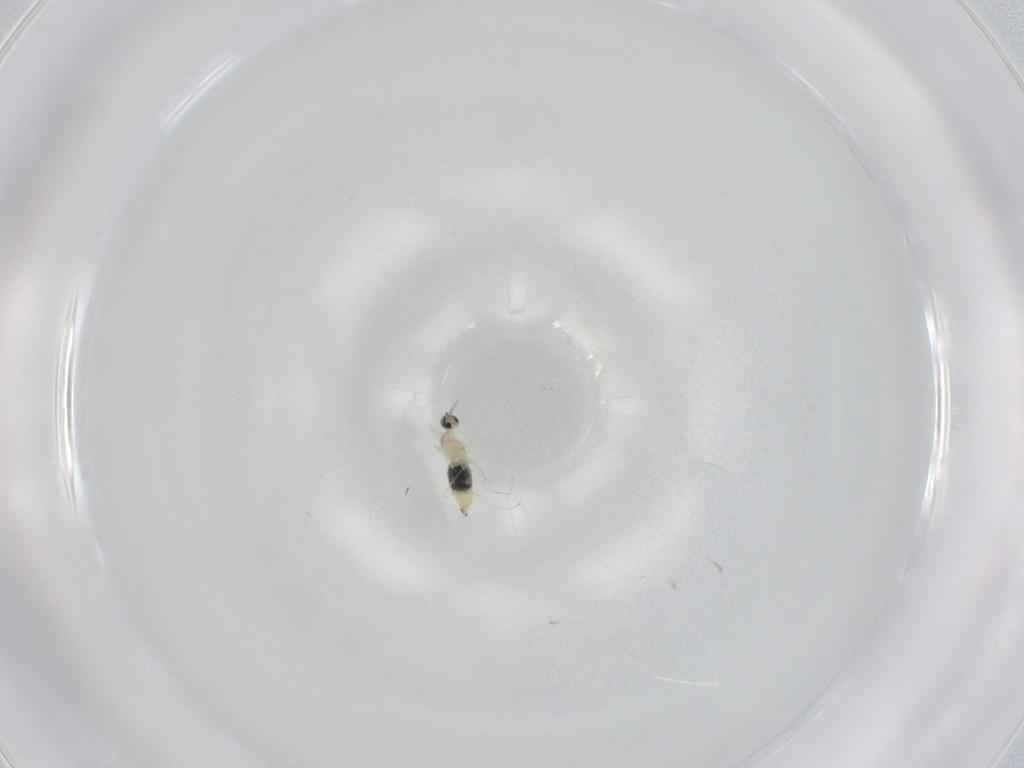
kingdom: Animalia
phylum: Arthropoda
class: Insecta
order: Diptera
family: Cecidomyiidae
